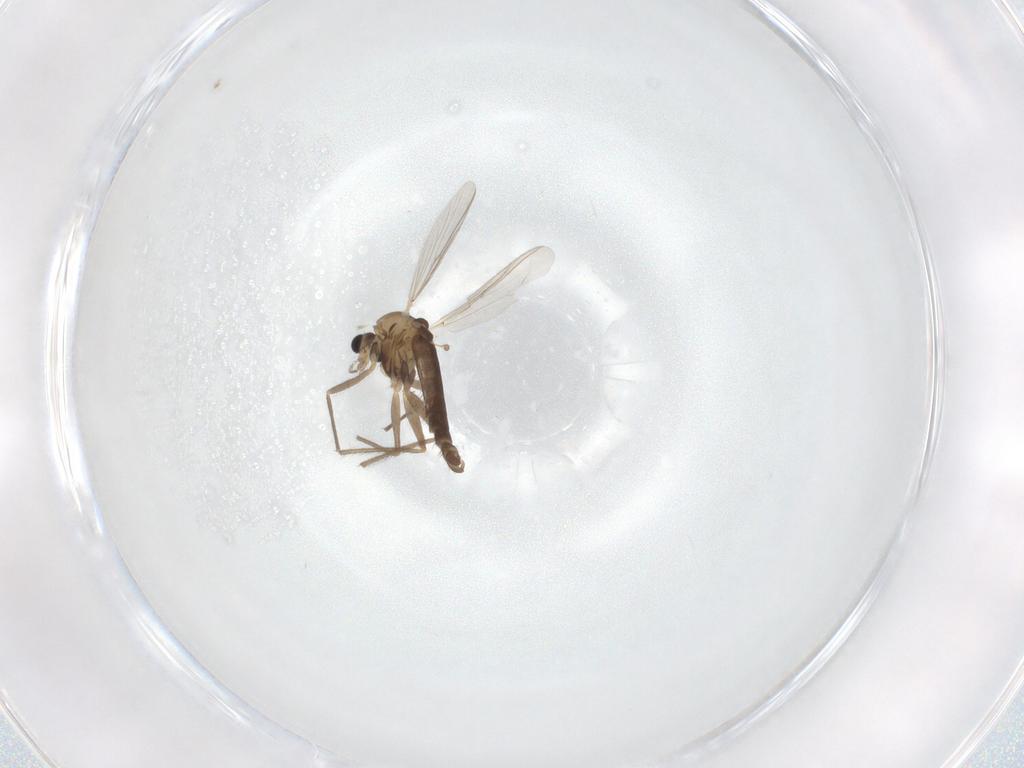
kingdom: Animalia
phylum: Arthropoda
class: Insecta
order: Diptera
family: Chironomidae
